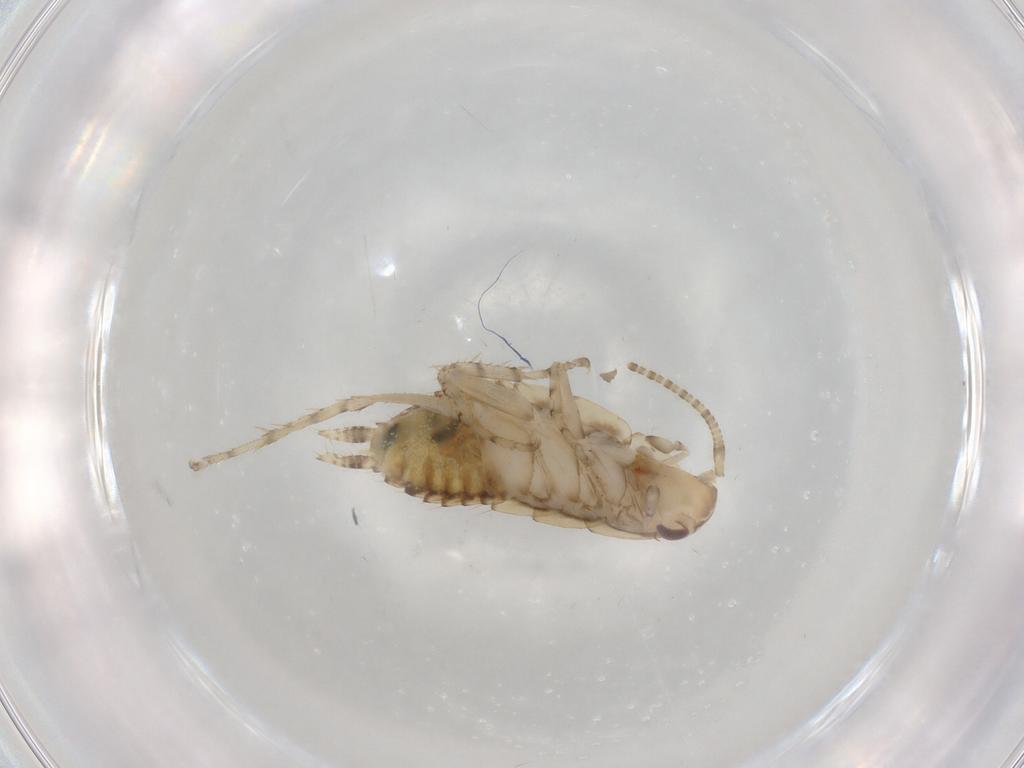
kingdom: Animalia
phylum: Arthropoda
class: Insecta
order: Blattodea
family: Ectobiidae
